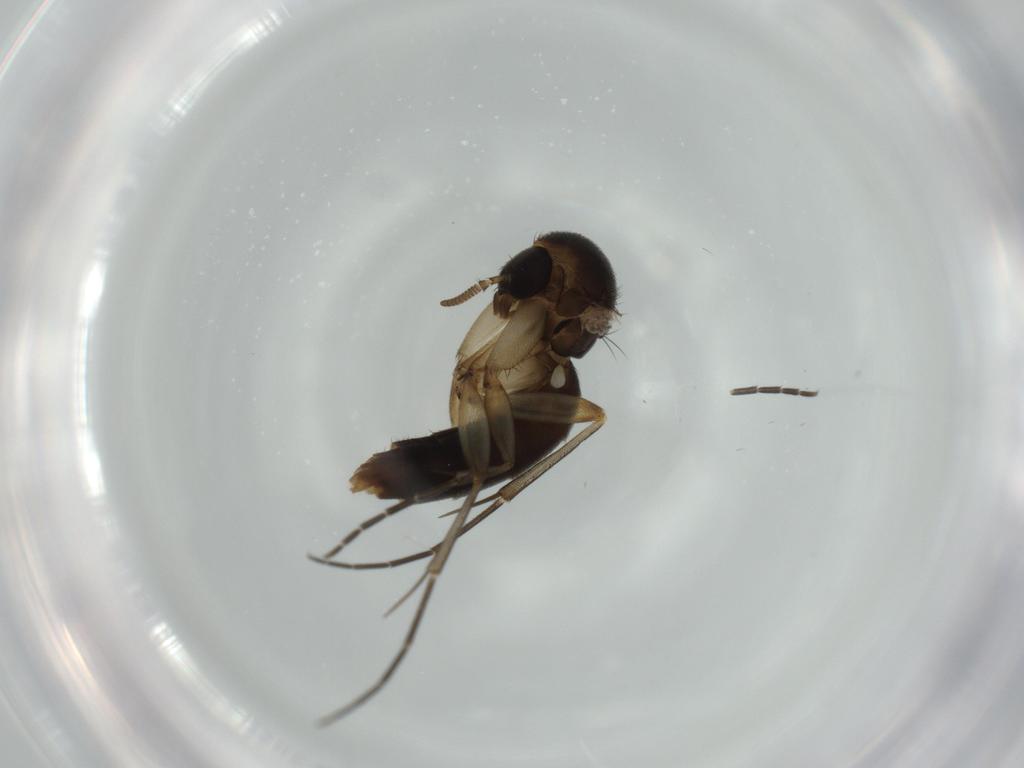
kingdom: Animalia
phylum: Arthropoda
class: Insecta
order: Diptera
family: Mycetophilidae
